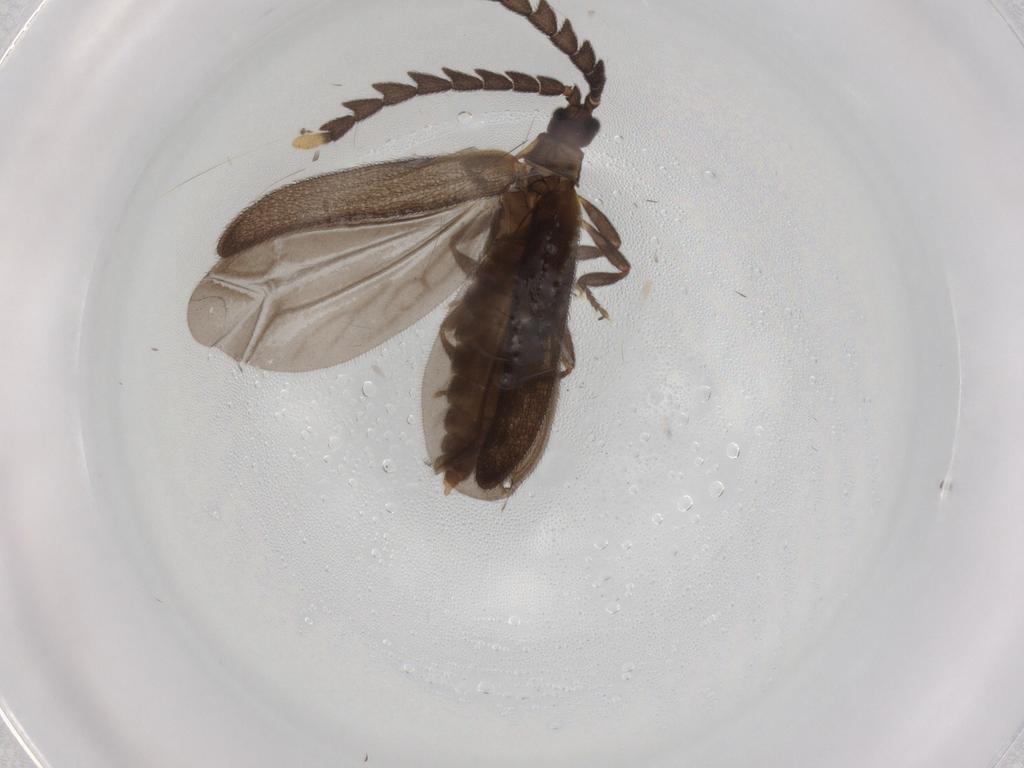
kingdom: Animalia
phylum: Arthropoda
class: Insecta
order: Coleoptera
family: Lycidae
